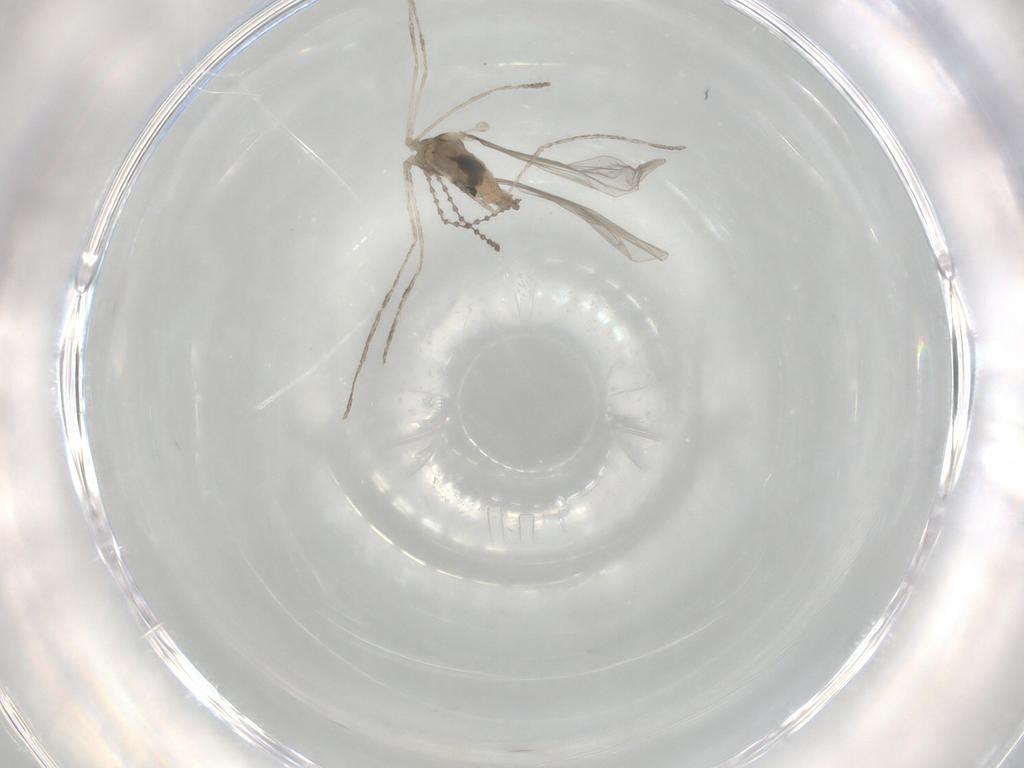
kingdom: Animalia
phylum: Arthropoda
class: Insecta
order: Diptera
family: Cecidomyiidae
